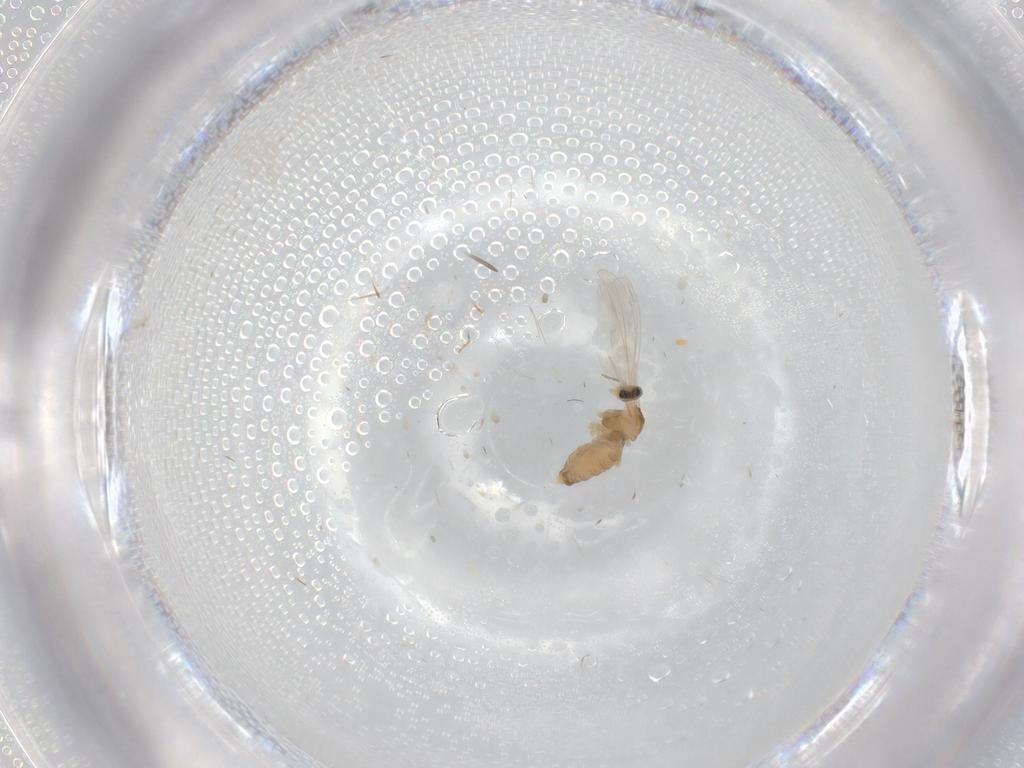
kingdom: Animalia
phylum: Arthropoda
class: Insecta
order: Diptera
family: Cecidomyiidae
